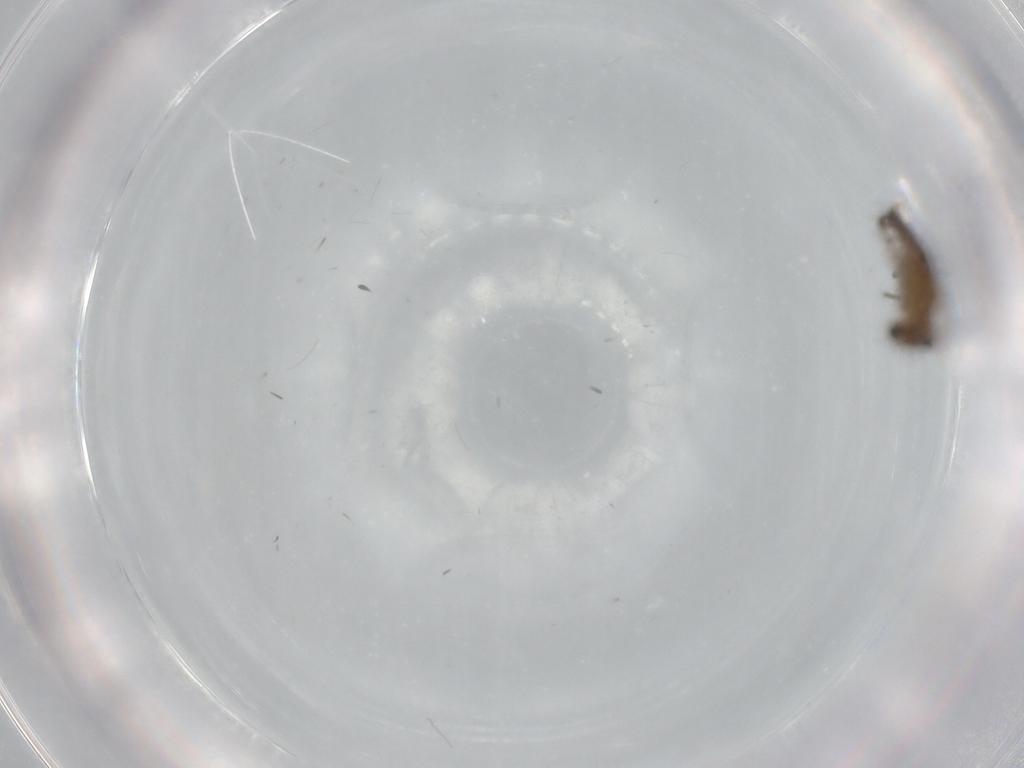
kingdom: Animalia
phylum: Arthropoda
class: Insecta
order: Diptera
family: Chironomidae
